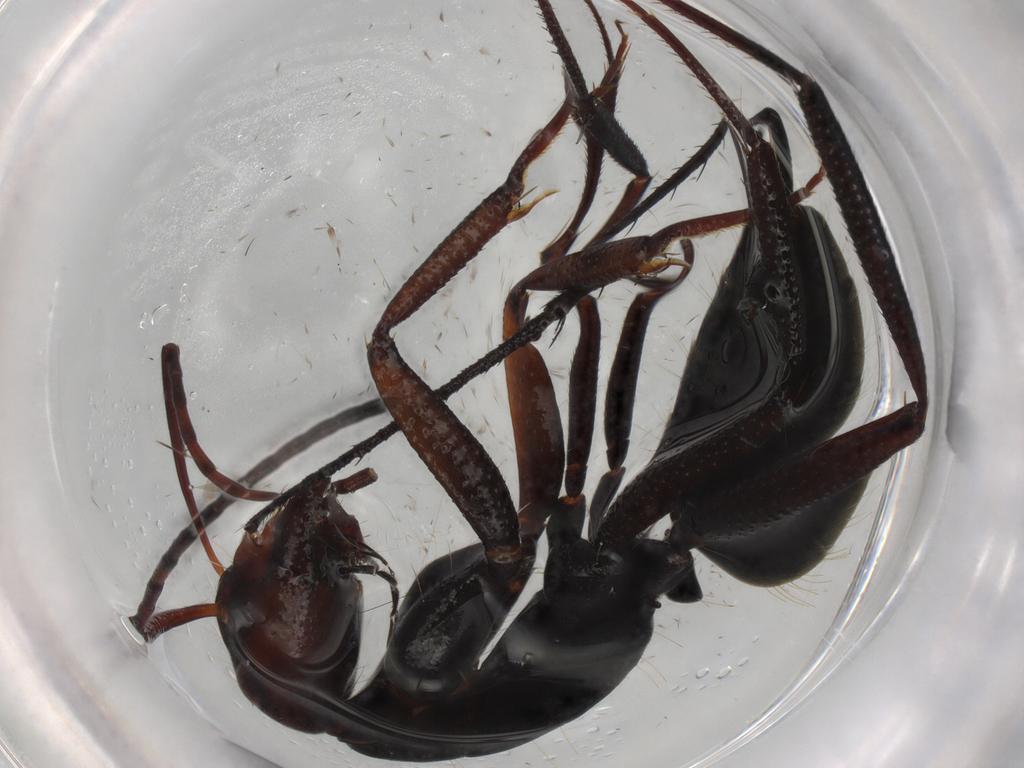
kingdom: Animalia
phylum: Arthropoda
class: Insecta
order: Hymenoptera
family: Formicidae
